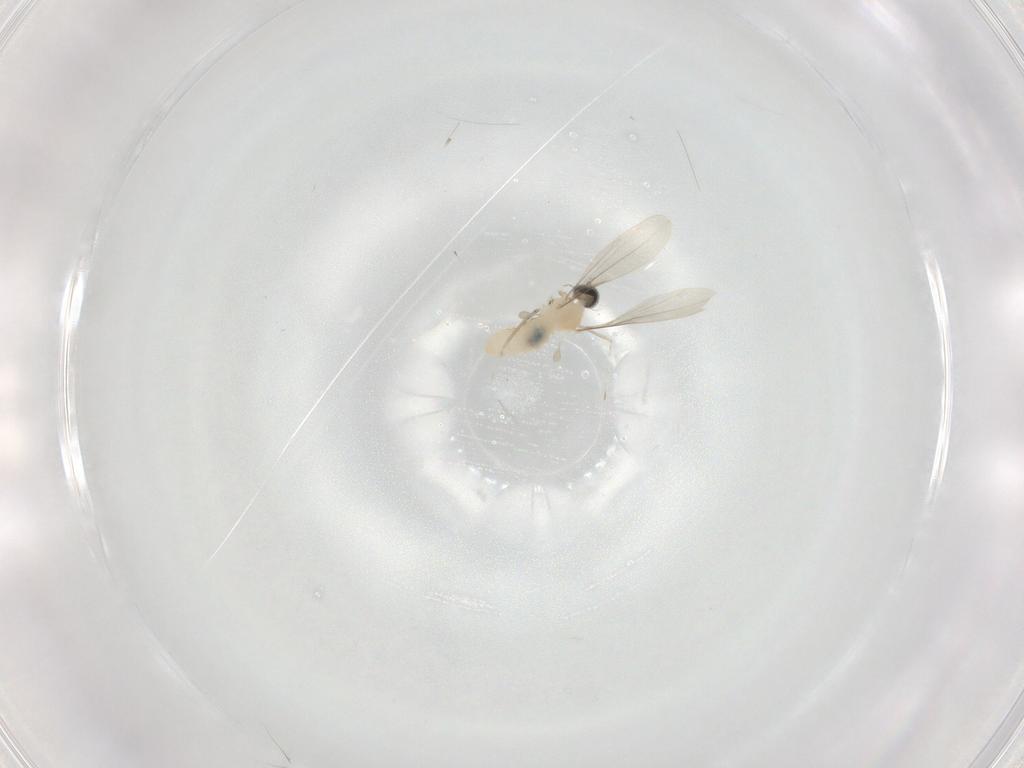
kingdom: Animalia
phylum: Arthropoda
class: Insecta
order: Diptera
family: Cecidomyiidae
